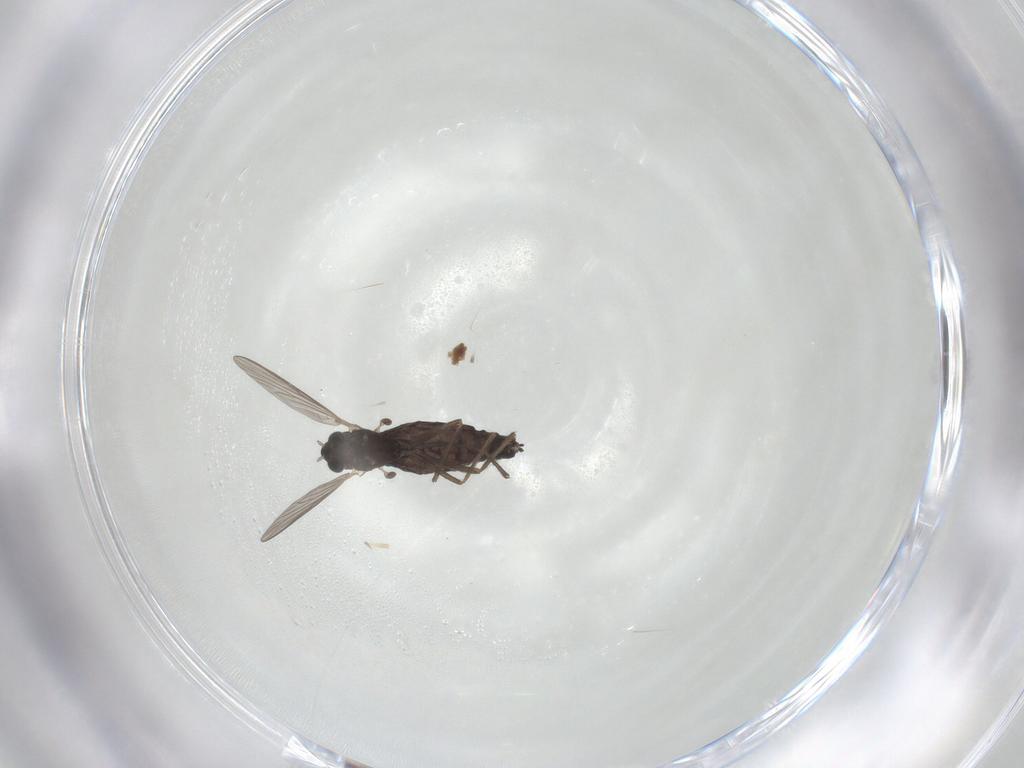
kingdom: Animalia
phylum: Arthropoda
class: Insecta
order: Diptera
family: Chironomidae
